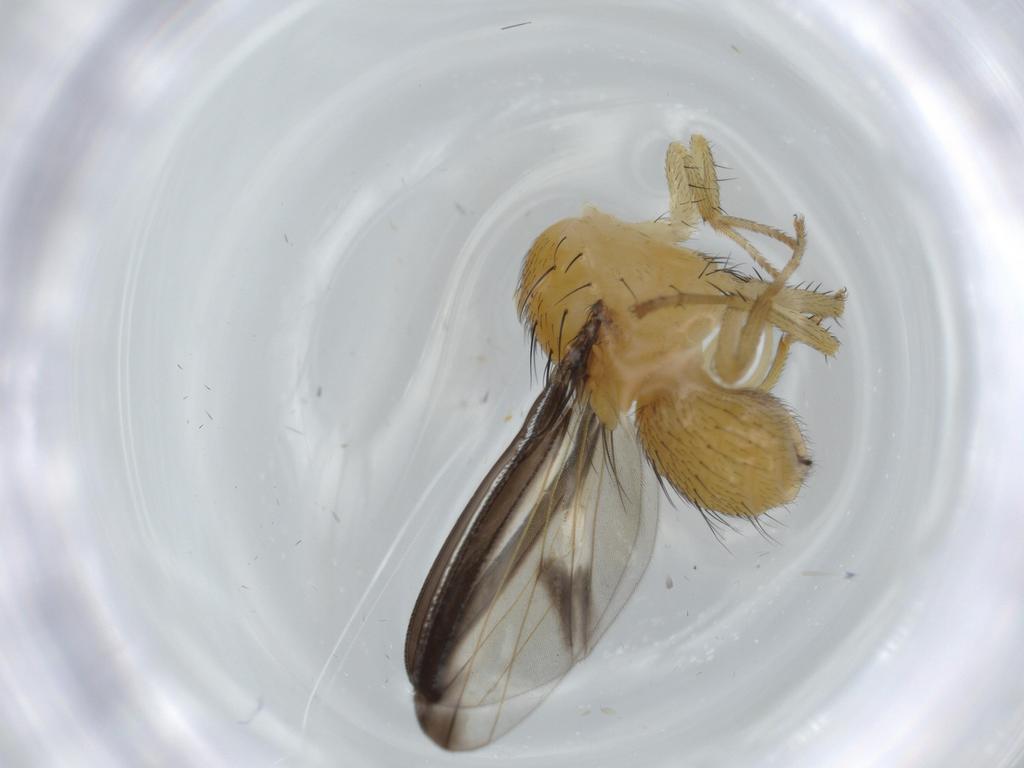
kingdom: Animalia
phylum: Arthropoda
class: Insecta
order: Diptera
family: Lauxaniidae
